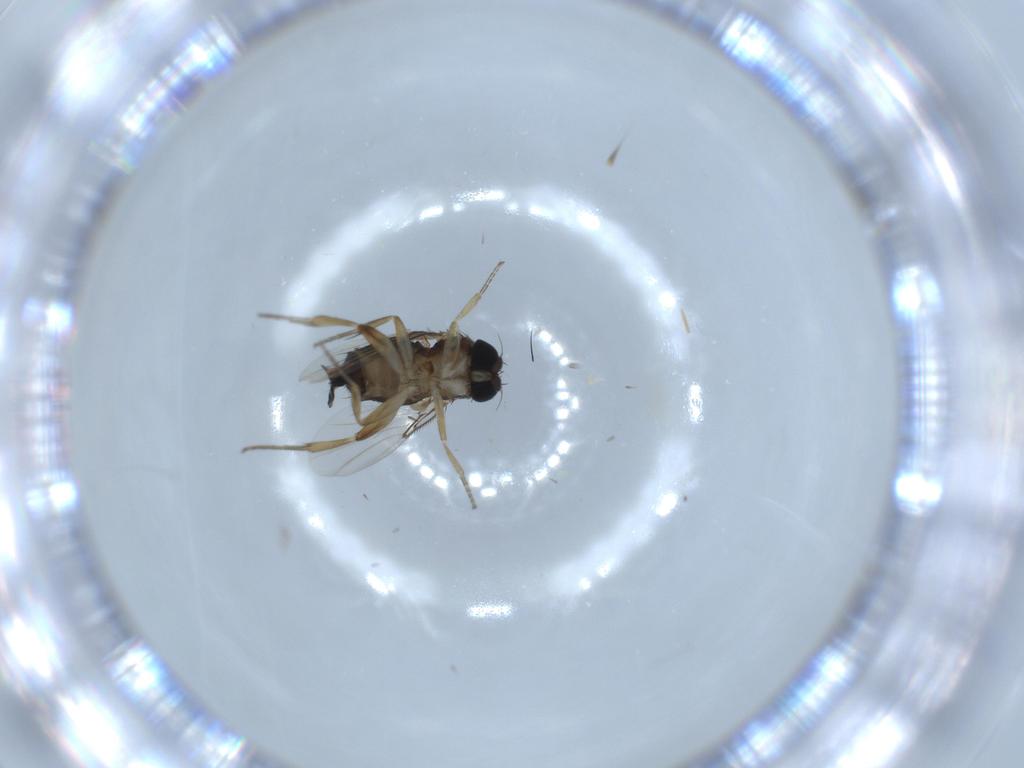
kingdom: Animalia
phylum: Arthropoda
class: Insecta
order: Diptera
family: Phoridae
